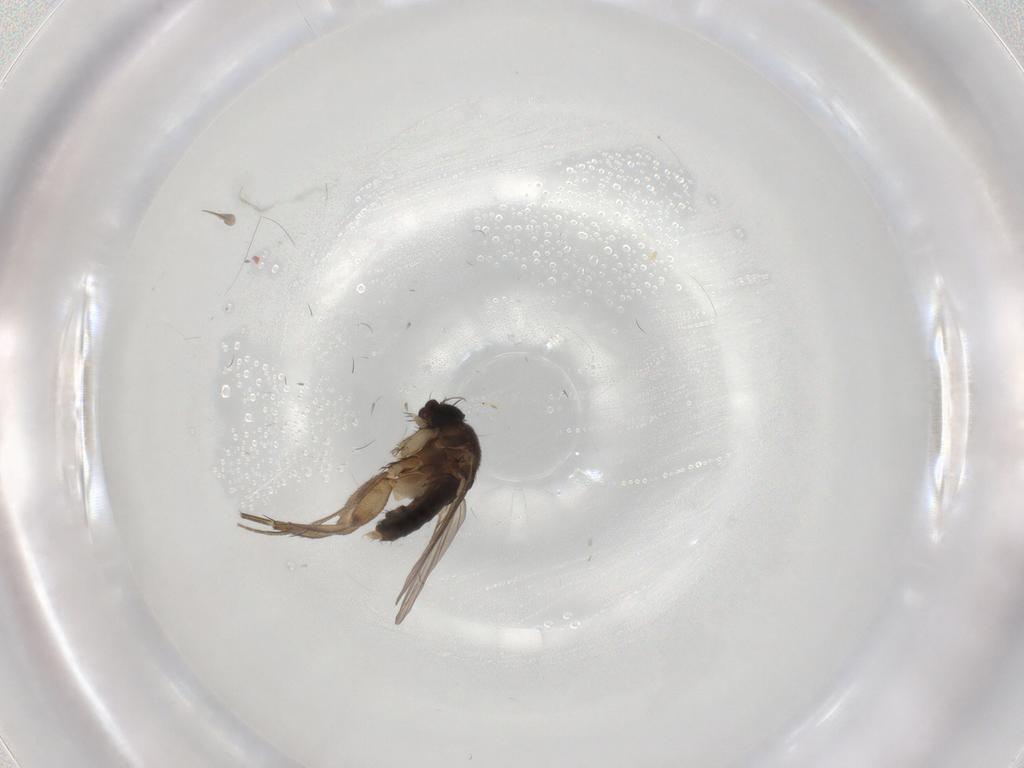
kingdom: Animalia
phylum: Arthropoda
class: Insecta
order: Diptera
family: Phoridae
